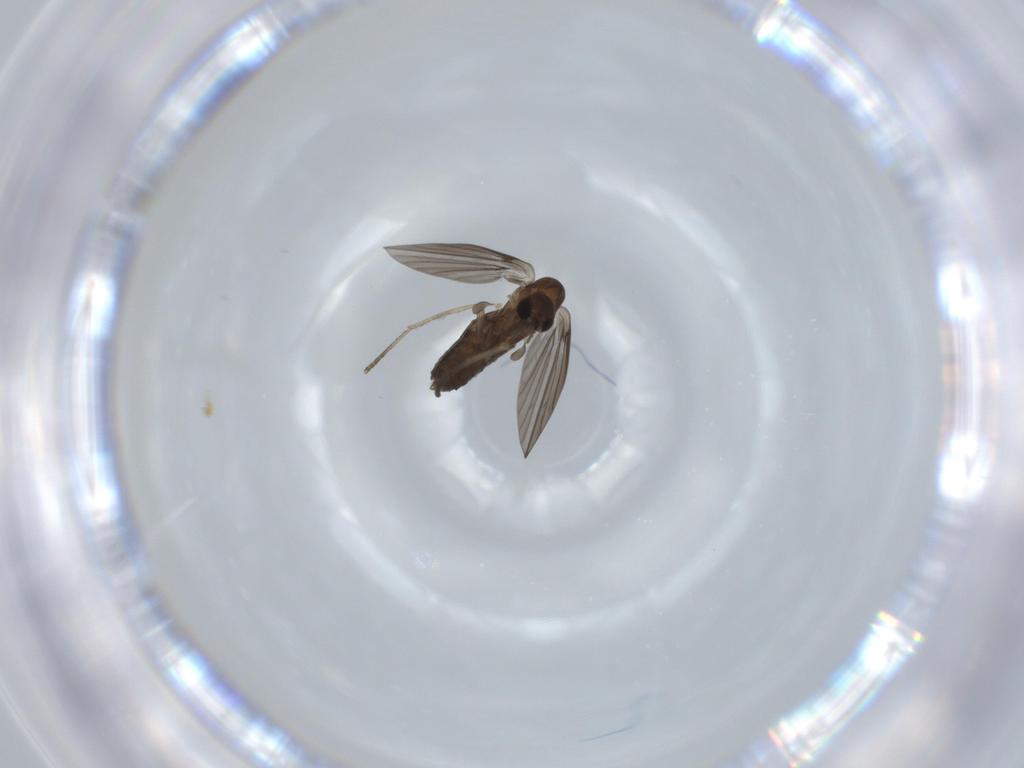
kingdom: Animalia
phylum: Arthropoda
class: Insecta
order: Diptera
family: Psychodidae
